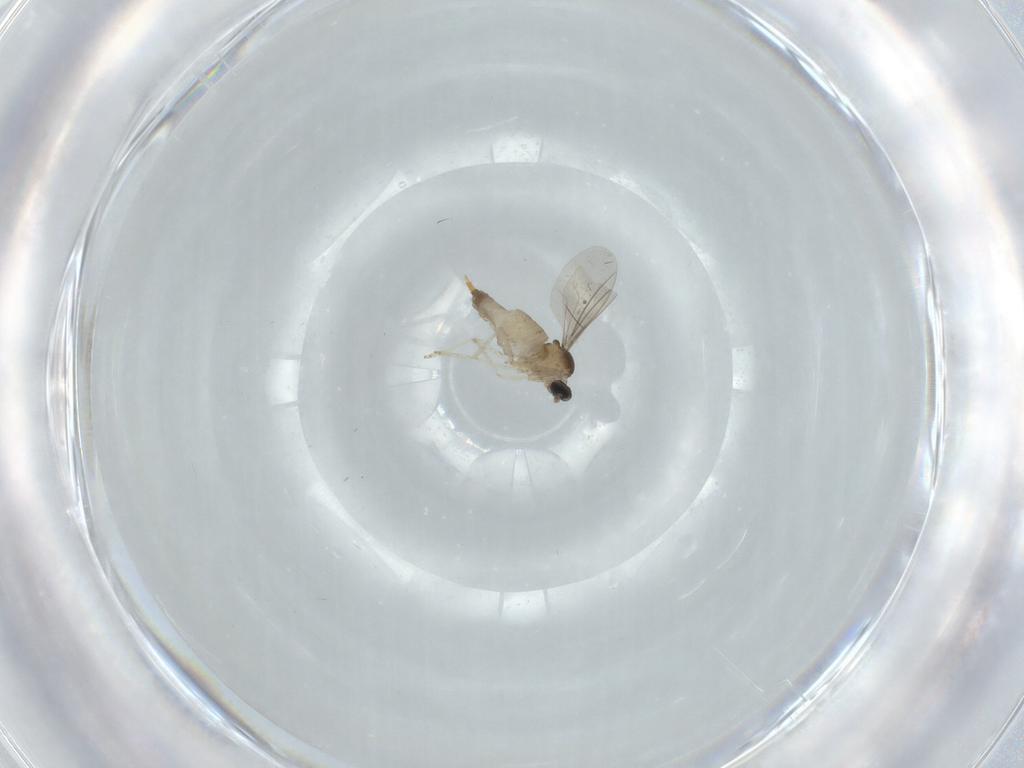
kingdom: Animalia
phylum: Arthropoda
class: Insecta
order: Diptera
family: Cecidomyiidae
